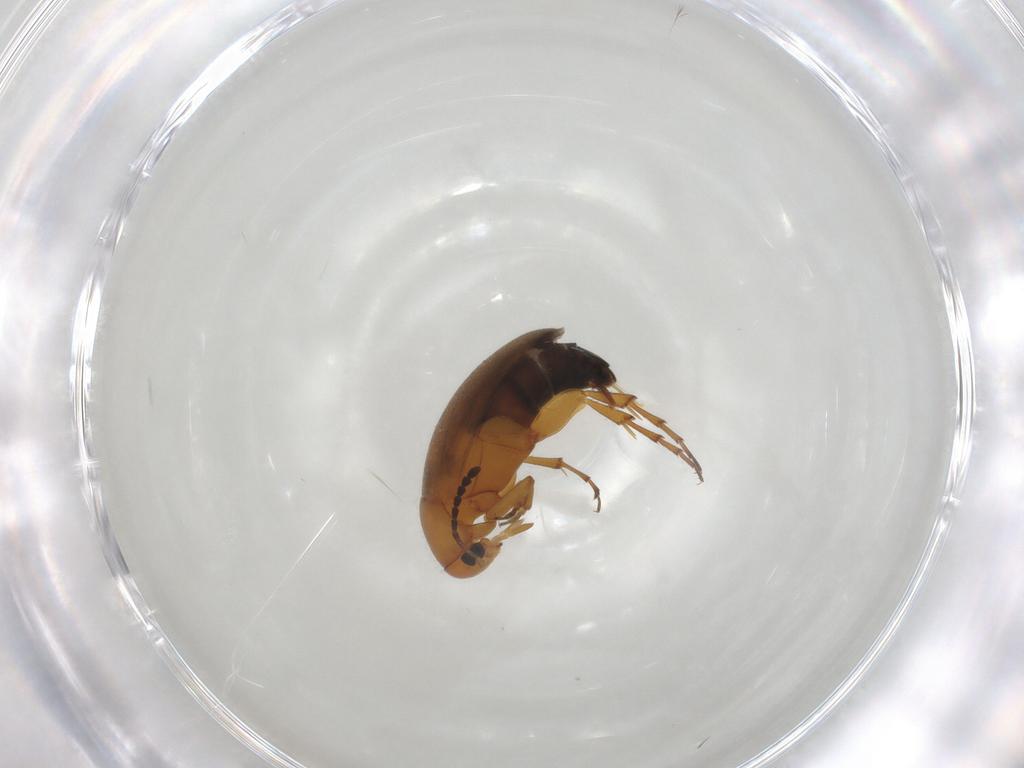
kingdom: Animalia
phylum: Arthropoda
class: Insecta
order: Coleoptera
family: Scraptiidae
